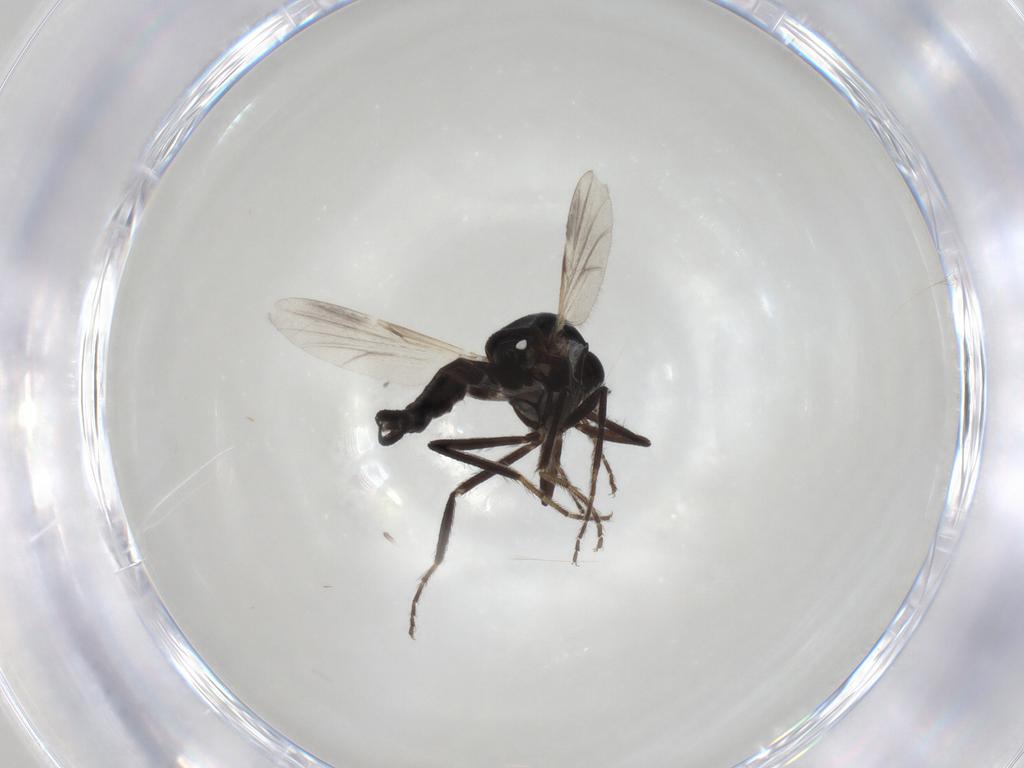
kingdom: Animalia
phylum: Arthropoda
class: Insecta
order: Diptera
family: Ceratopogonidae
